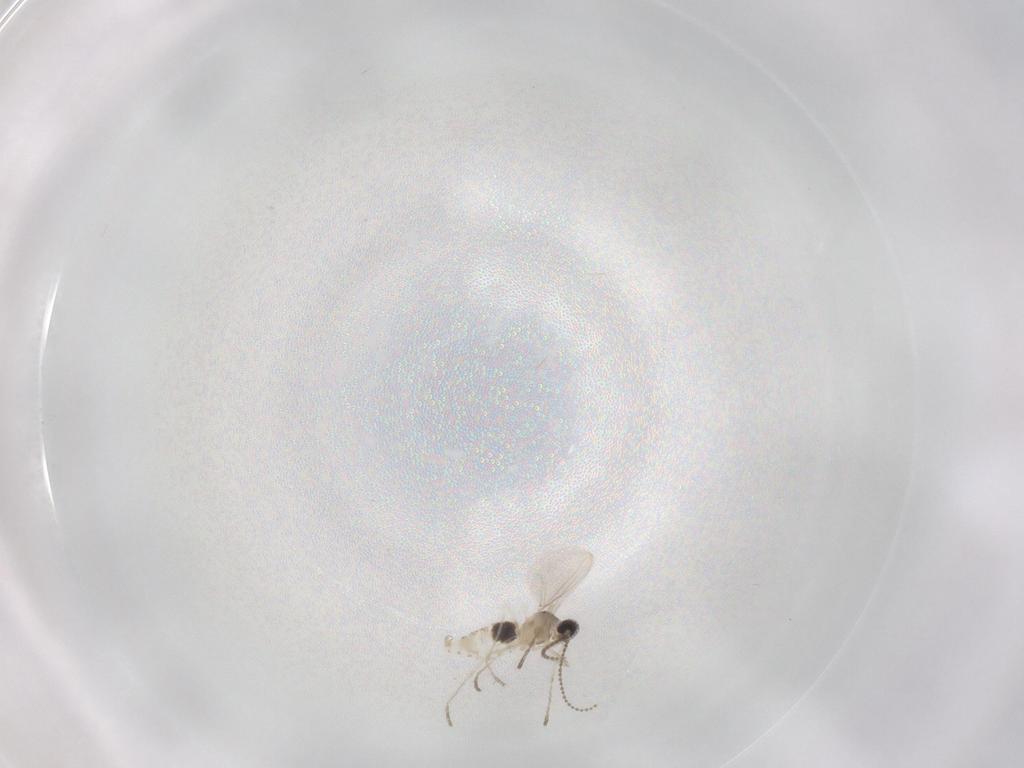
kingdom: Animalia
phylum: Arthropoda
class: Insecta
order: Diptera
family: Cecidomyiidae
